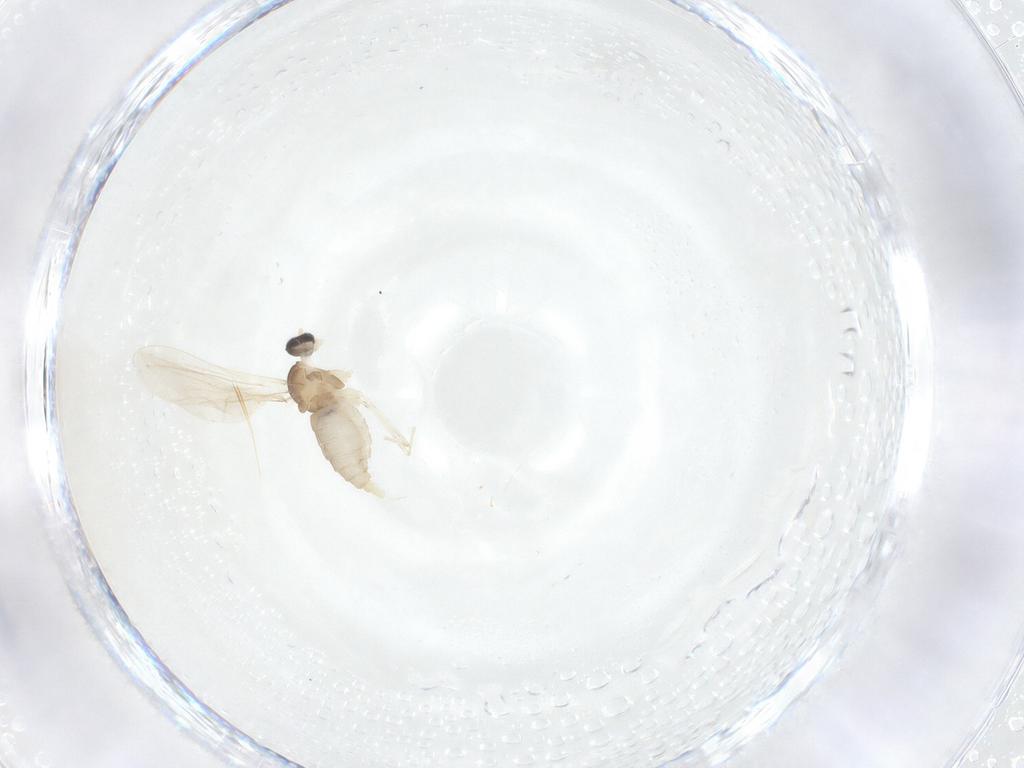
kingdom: Animalia
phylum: Arthropoda
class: Insecta
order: Diptera
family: Cecidomyiidae
